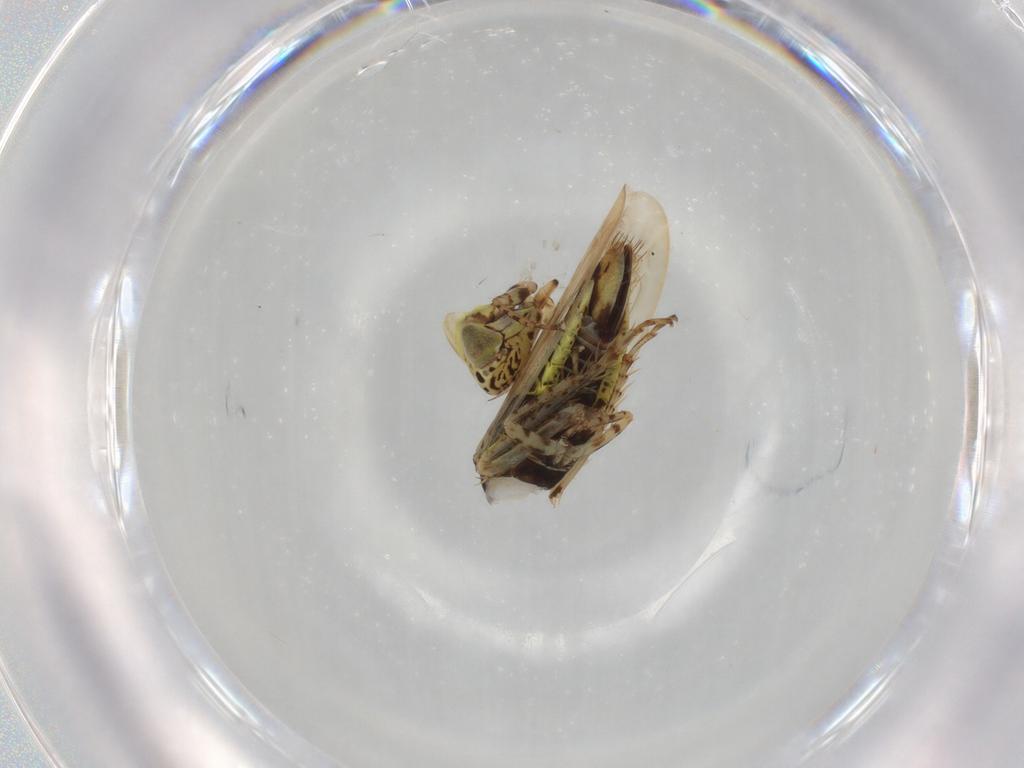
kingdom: Animalia
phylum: Arthropoda
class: Insecta
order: Hemiptera
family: Cicadellidae
